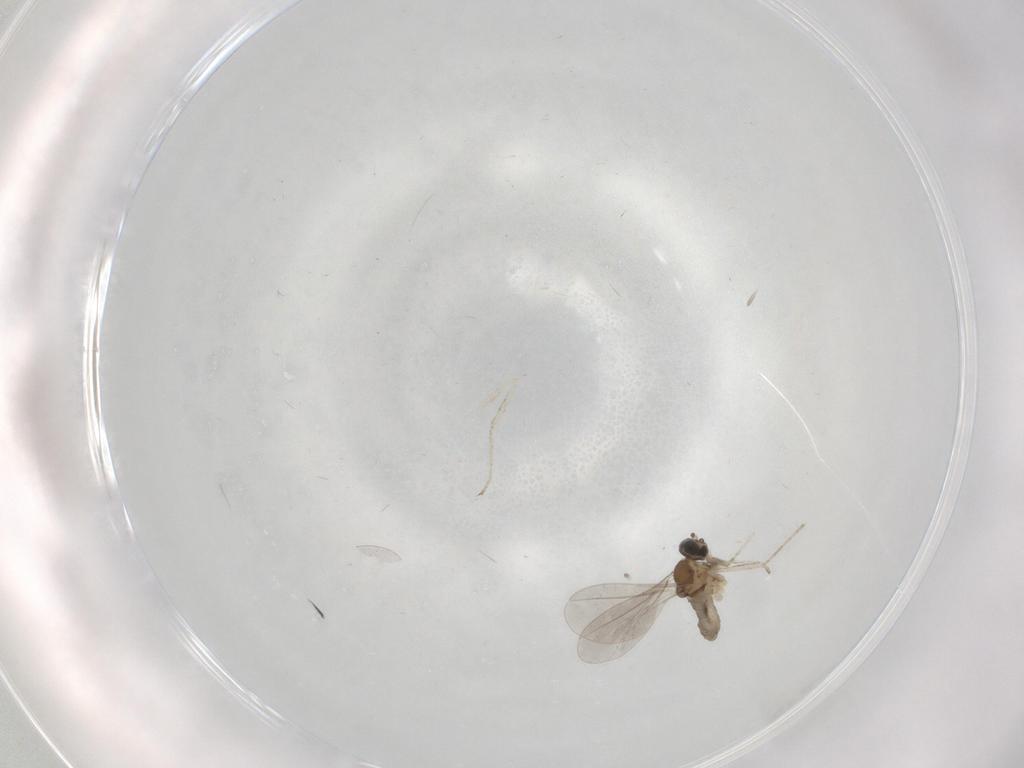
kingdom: Animalia
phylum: Arthropoda
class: Insecta
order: Diptera
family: Cecidomyiidae
